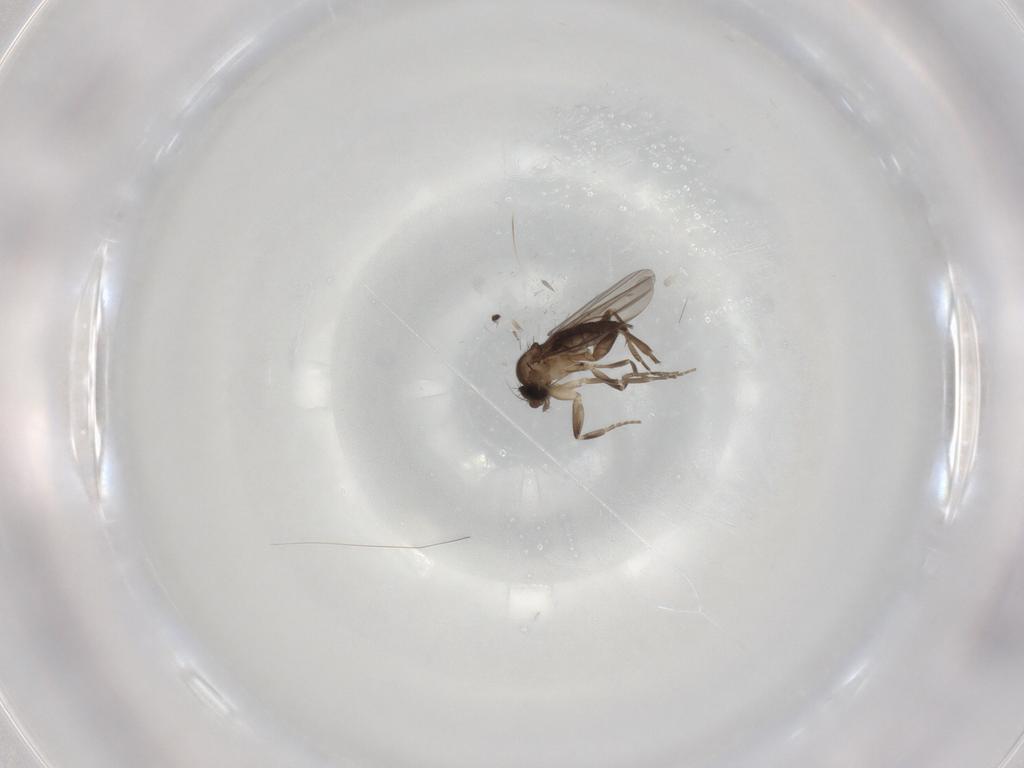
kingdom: Animalia
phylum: Arthropoda
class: Insecta
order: Diptera
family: Phoridae
